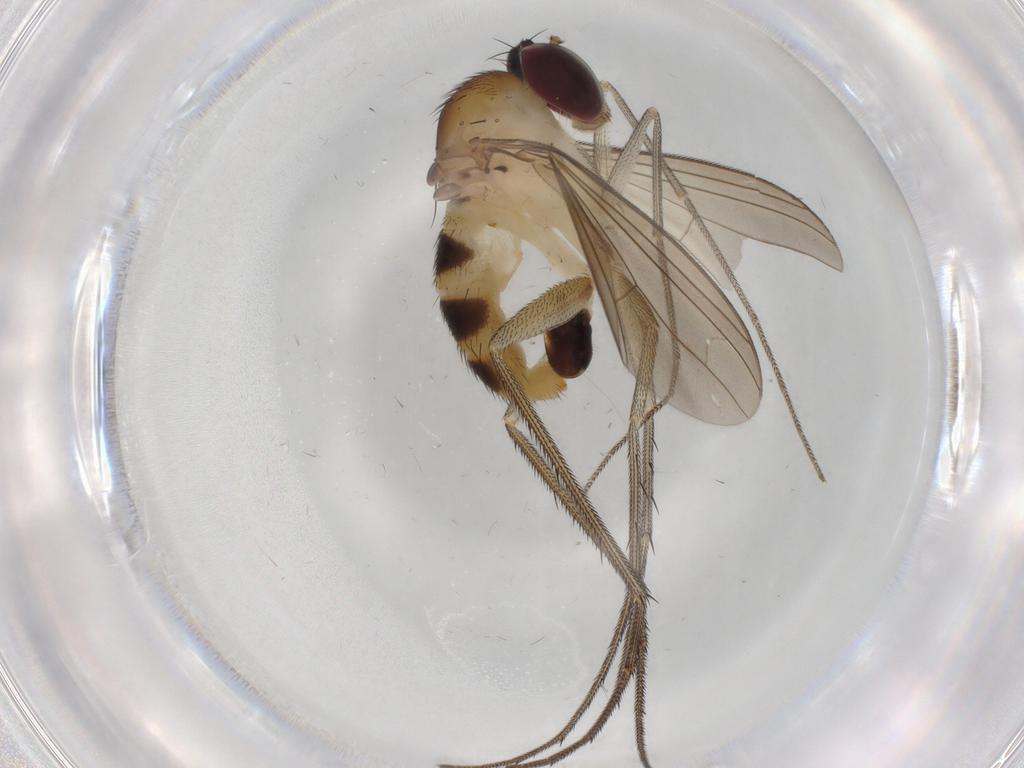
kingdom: Animalia
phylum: Arthropoda
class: Insecta
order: Diptera
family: Dolichopodidae
